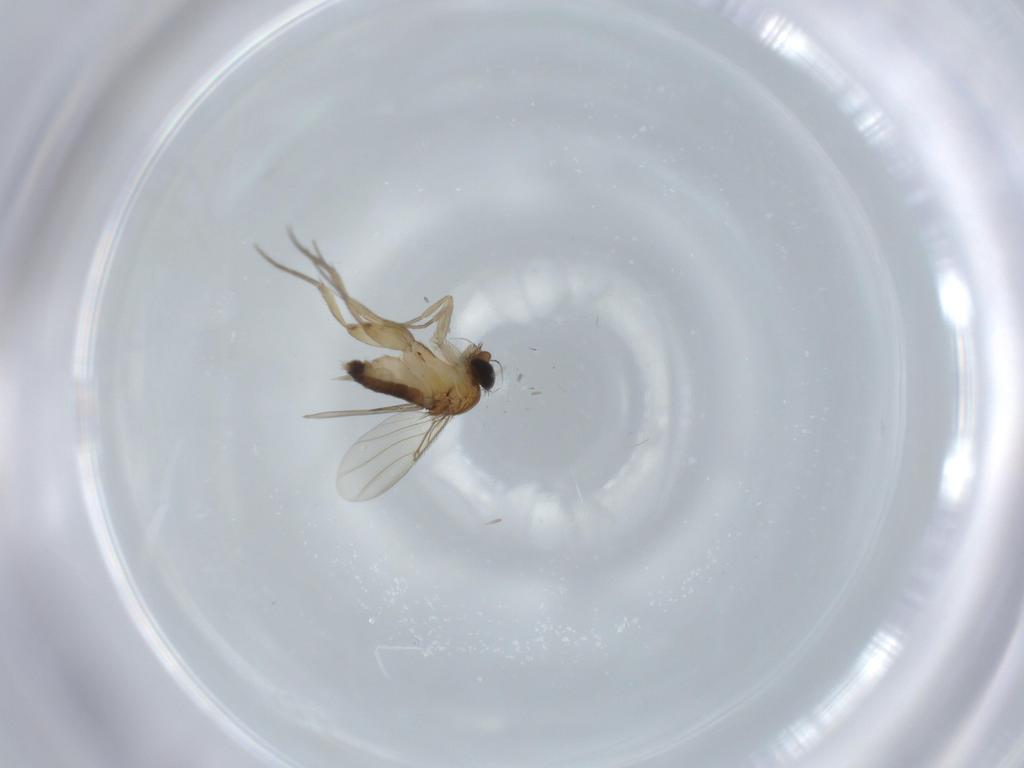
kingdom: Animalia
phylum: Arthropoda
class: Insecta
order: Diptera
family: Phoridae
